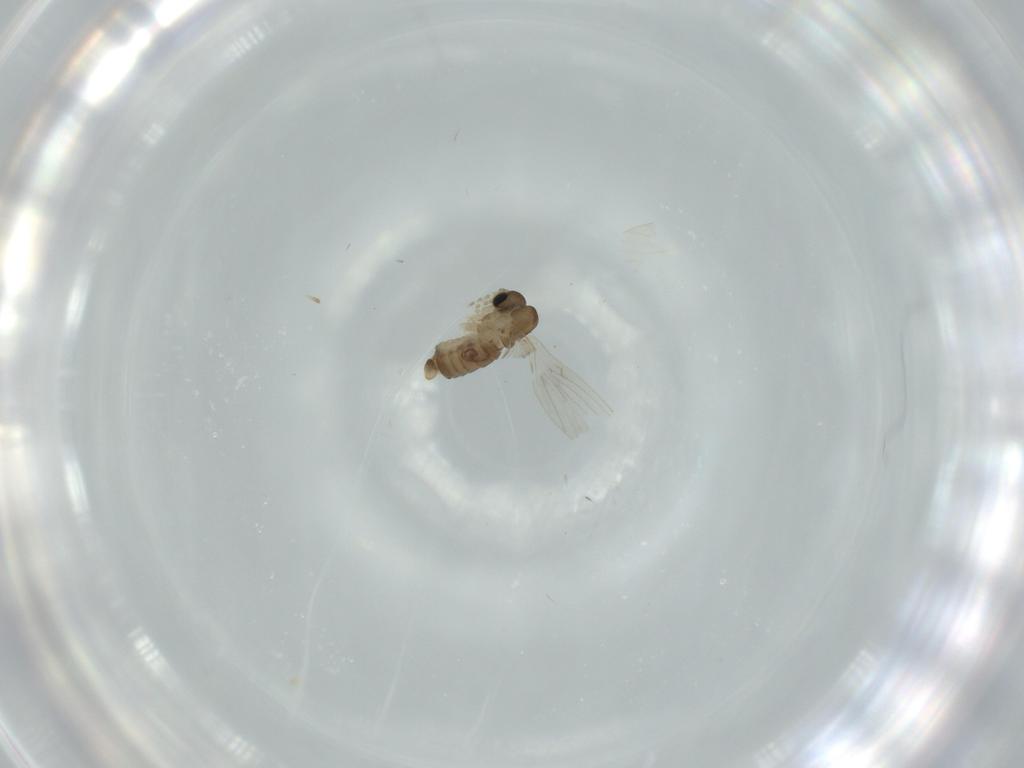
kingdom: Animalia
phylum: Arthropoda
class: Insecta
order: Diptera
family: Psychodidae
